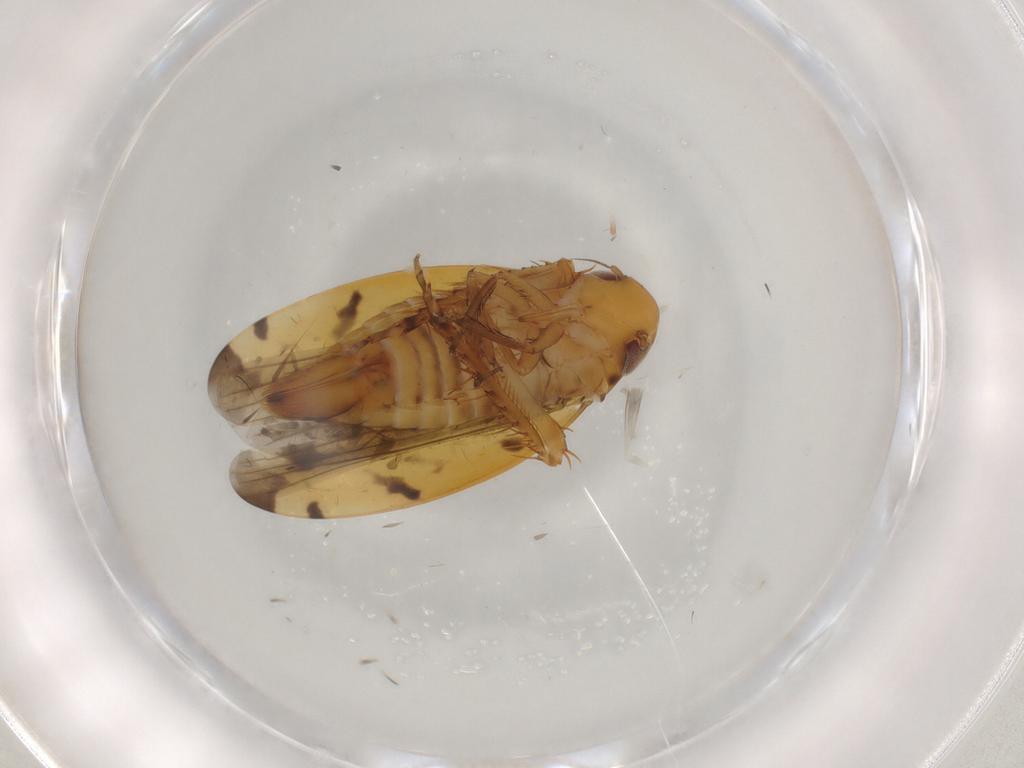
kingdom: Animalia
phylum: Arthropoda
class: Insecta
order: Hemiptera
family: Cicadellidae
